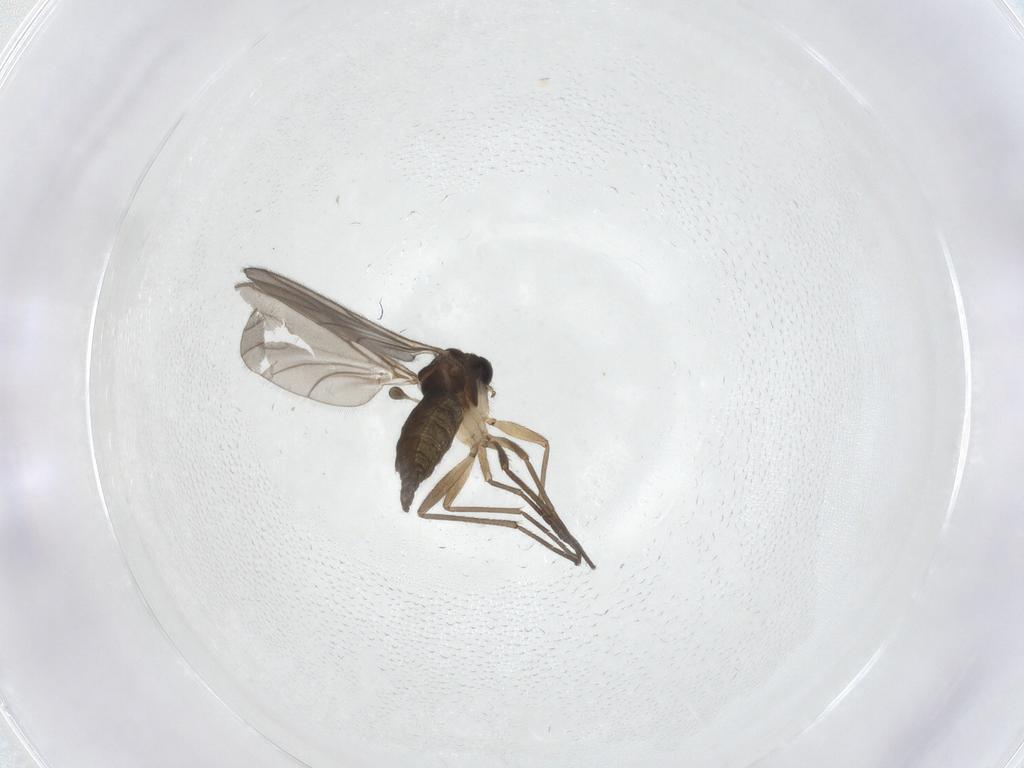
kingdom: Animalia
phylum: Arthropoda
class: Insecta
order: Diptera
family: Sciaridae
